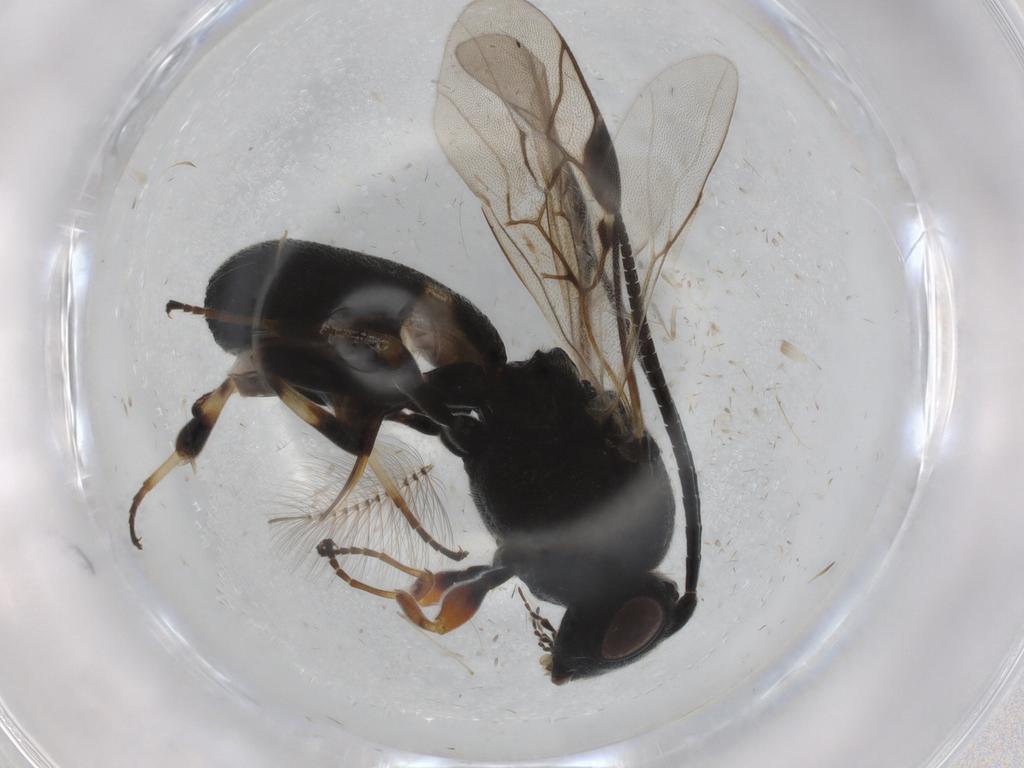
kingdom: Animalia
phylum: Arthropoda
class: Insecta
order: Hymenoptera
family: Braconidae
